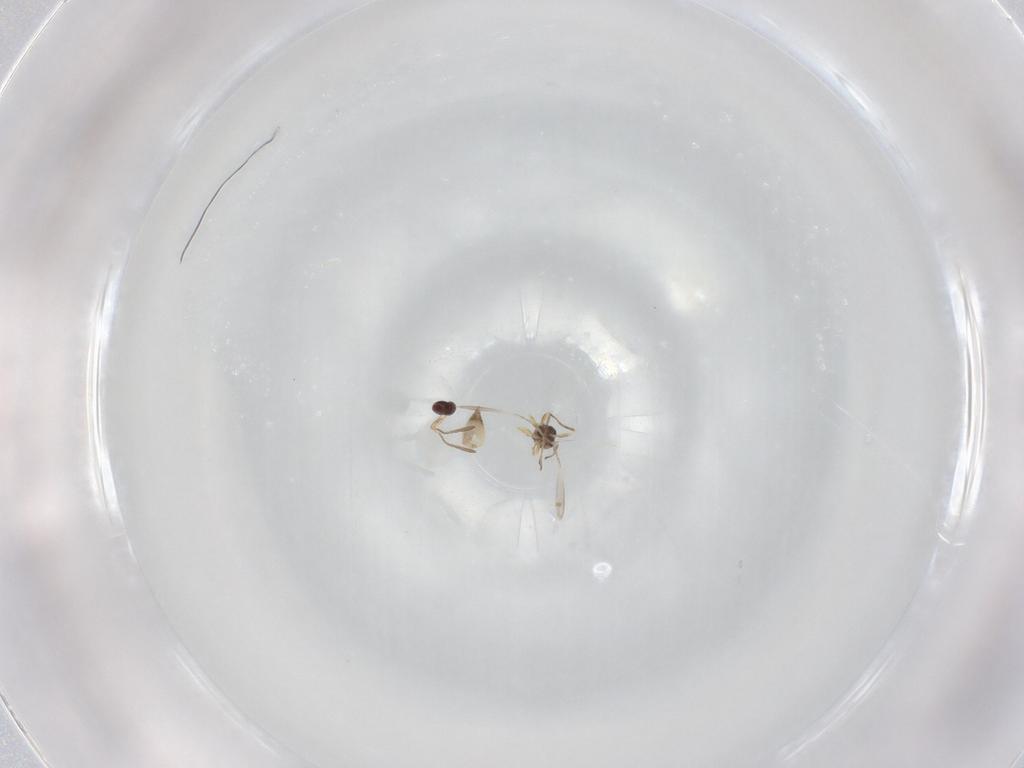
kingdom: Animalia
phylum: Arthropoda
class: Insecta
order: Hymenoptera
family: Mymaridae
